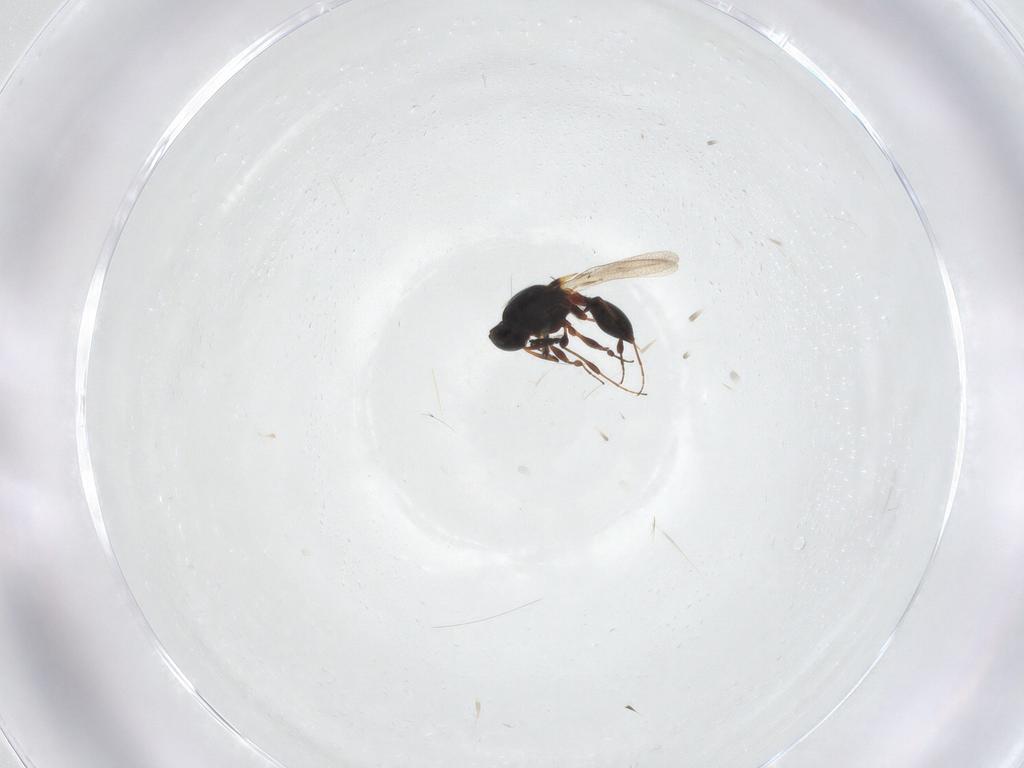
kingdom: Animalia
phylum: Arthropoda
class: Insecta
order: Hymenoptera
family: Platygastridae
